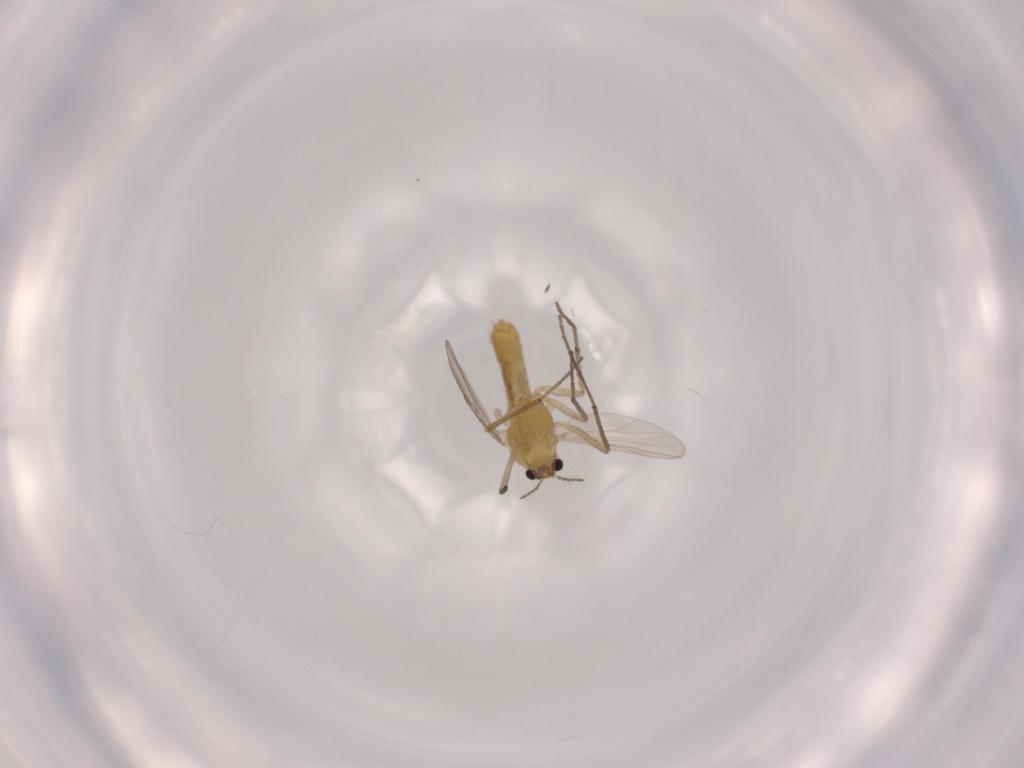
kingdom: Animalia
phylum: Arthropoda
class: Insecta
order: Diptera
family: Chironomidae
